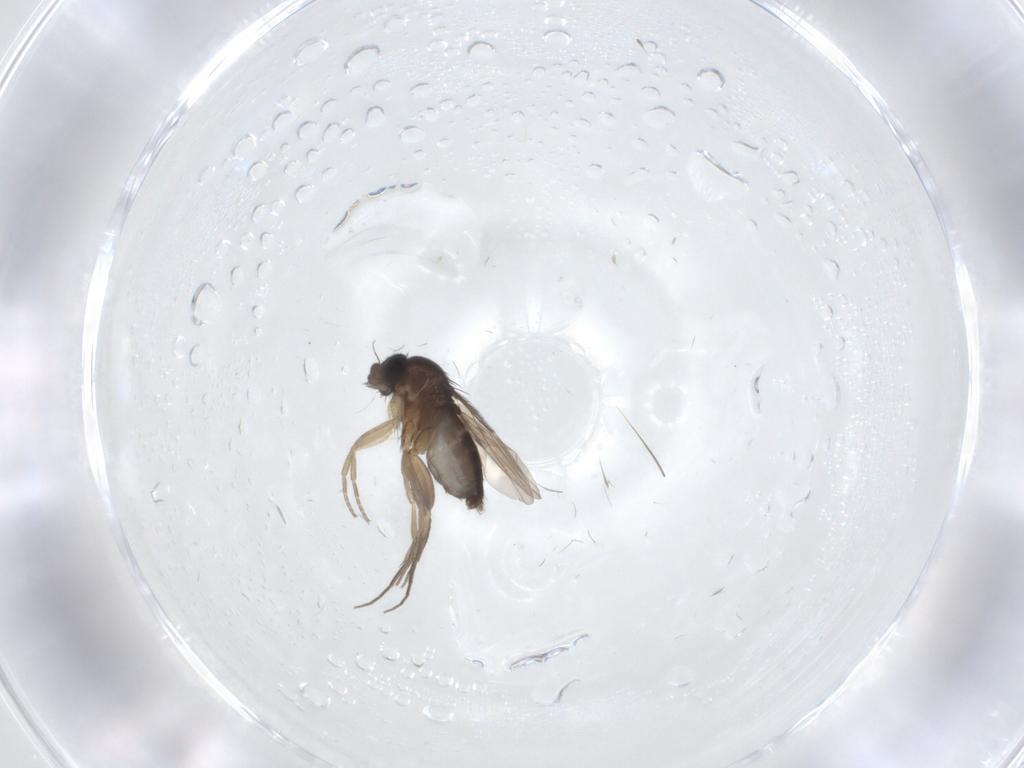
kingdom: Animalia
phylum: Arthropoda
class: Insecta
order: Diptera
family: Phoridae
